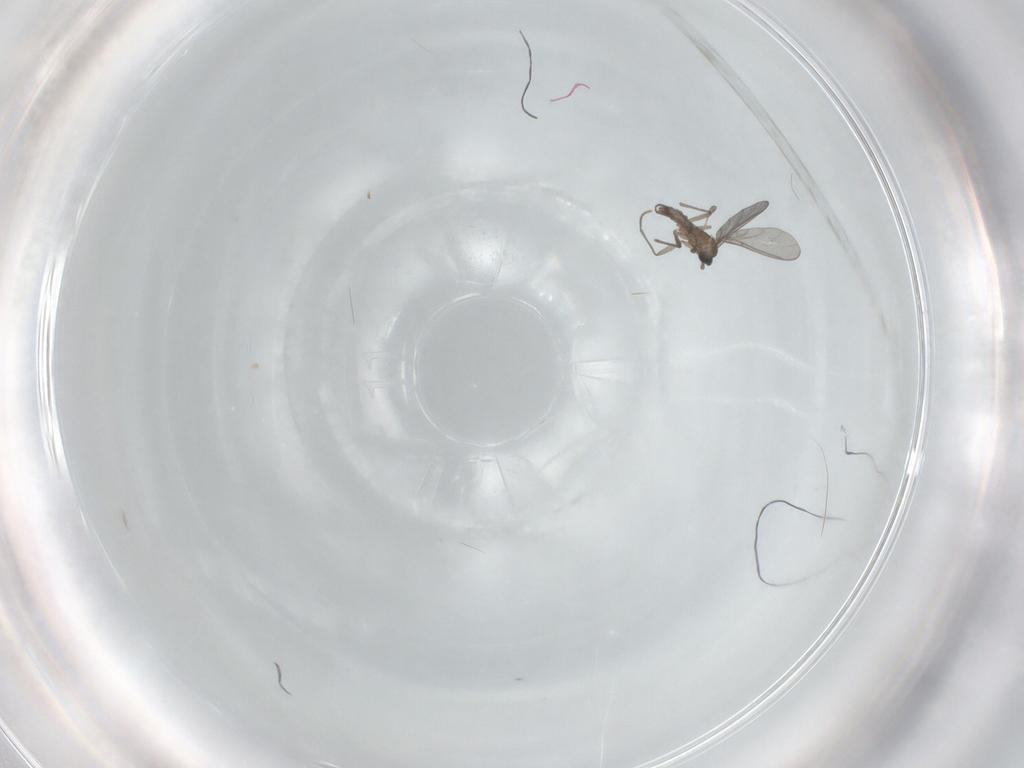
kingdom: Animalia
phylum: Arthropoda
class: Insecta
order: Diptera
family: Sciaridae
